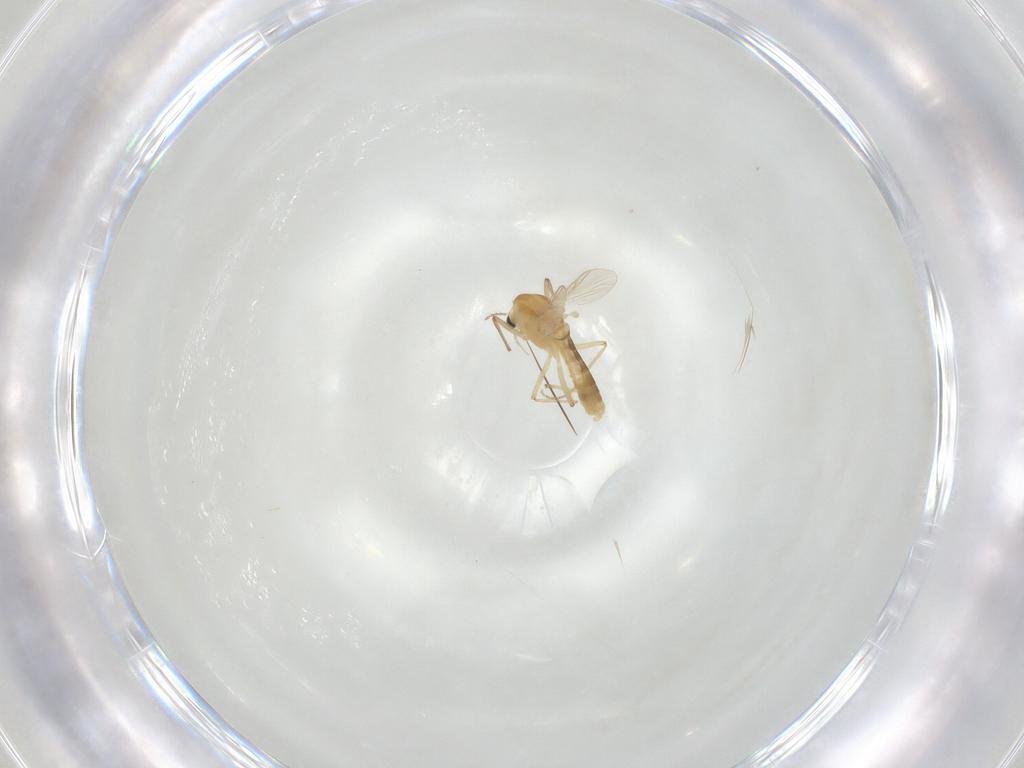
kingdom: Animalia
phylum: Arthropoda
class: Insecta
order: Diptera
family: Chironomidae
